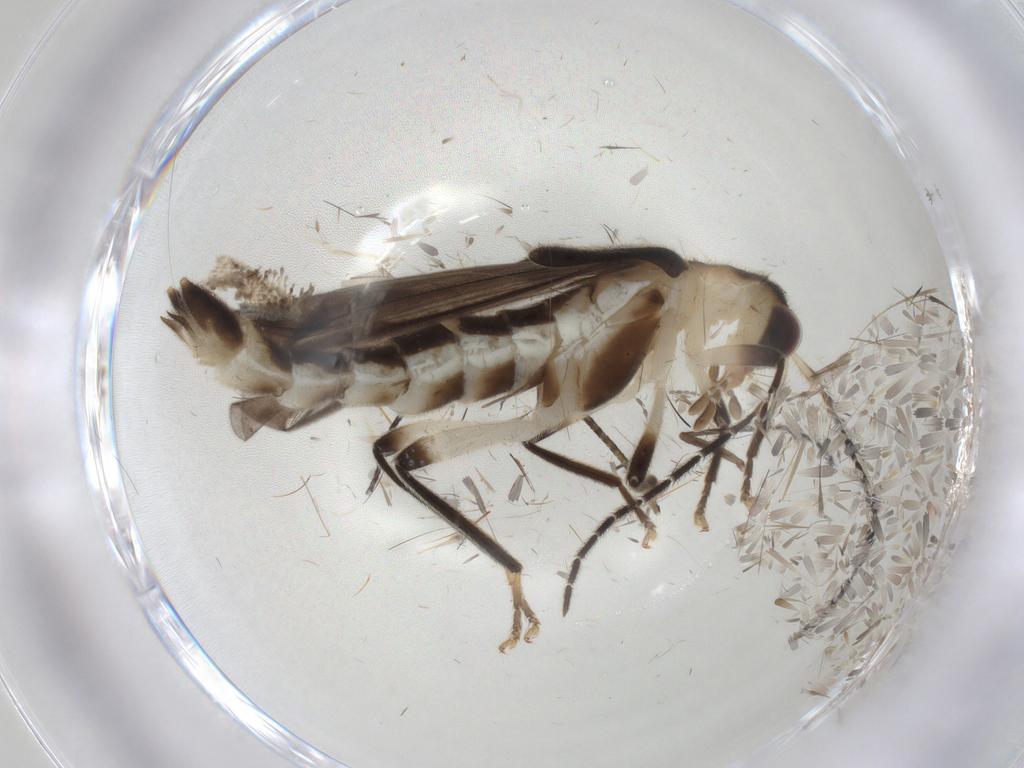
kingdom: Animalia
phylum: Arthropoda
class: Insecta
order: Coleoptera
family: Cantharidae
